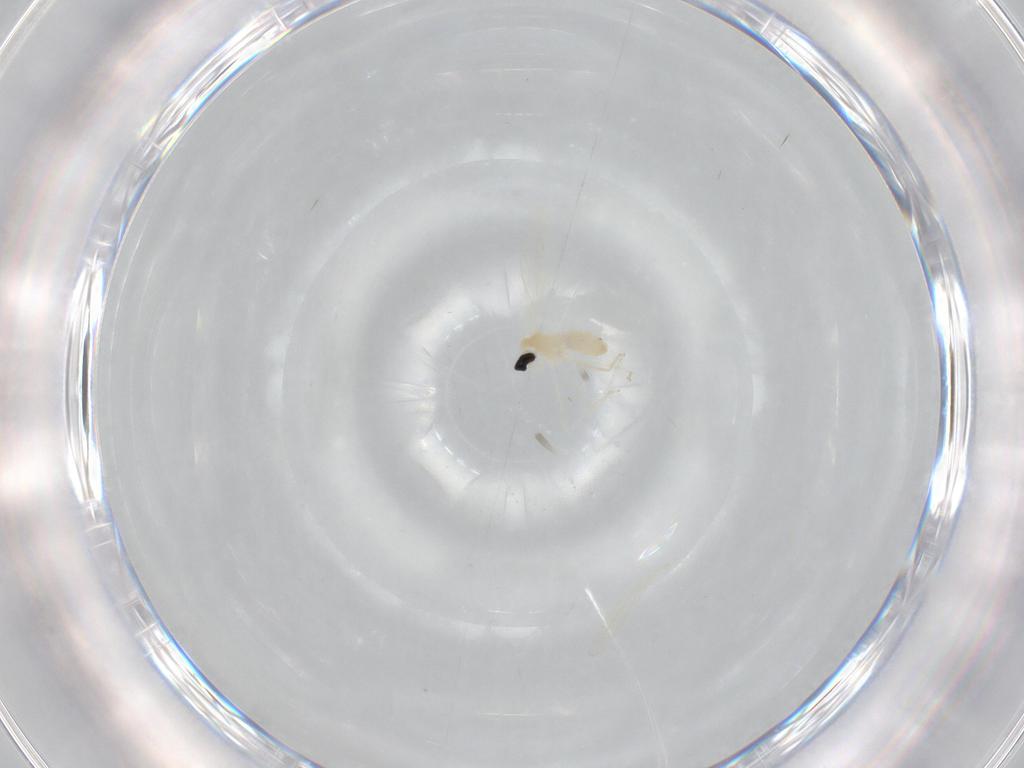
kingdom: Animalia
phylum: Arthropoda
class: Insecta
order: Diptera
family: Cecidomyiidae
